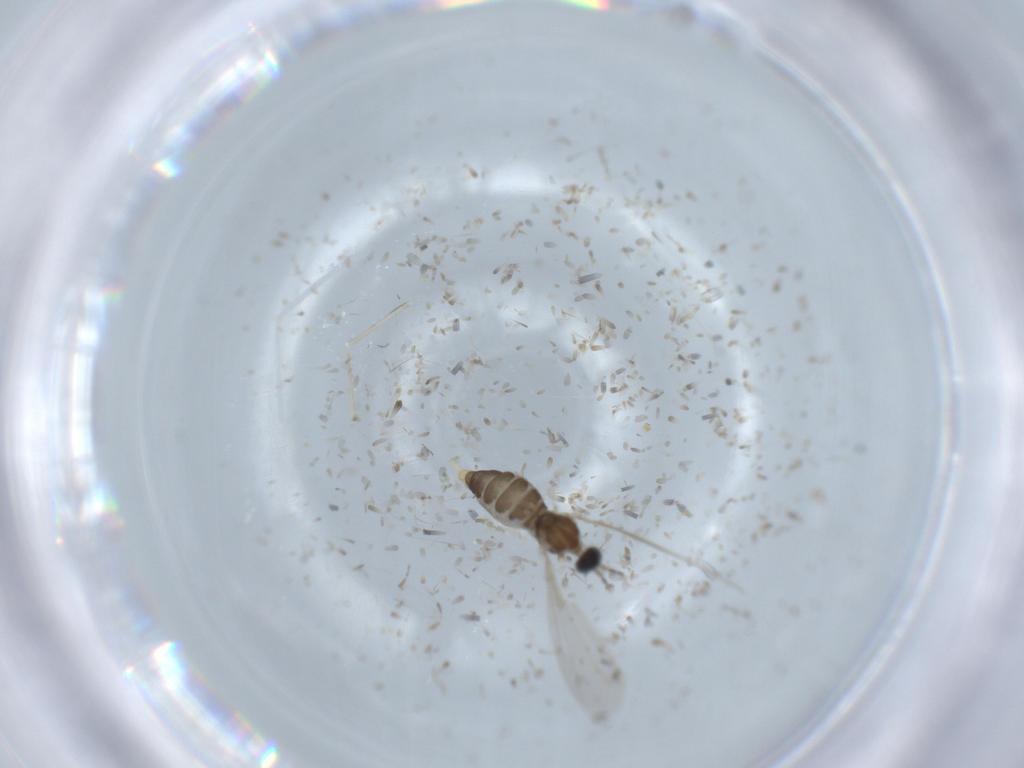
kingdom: Animalia
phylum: Arthropoda
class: Insecta
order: Diptera
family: Cecidomyiidae
